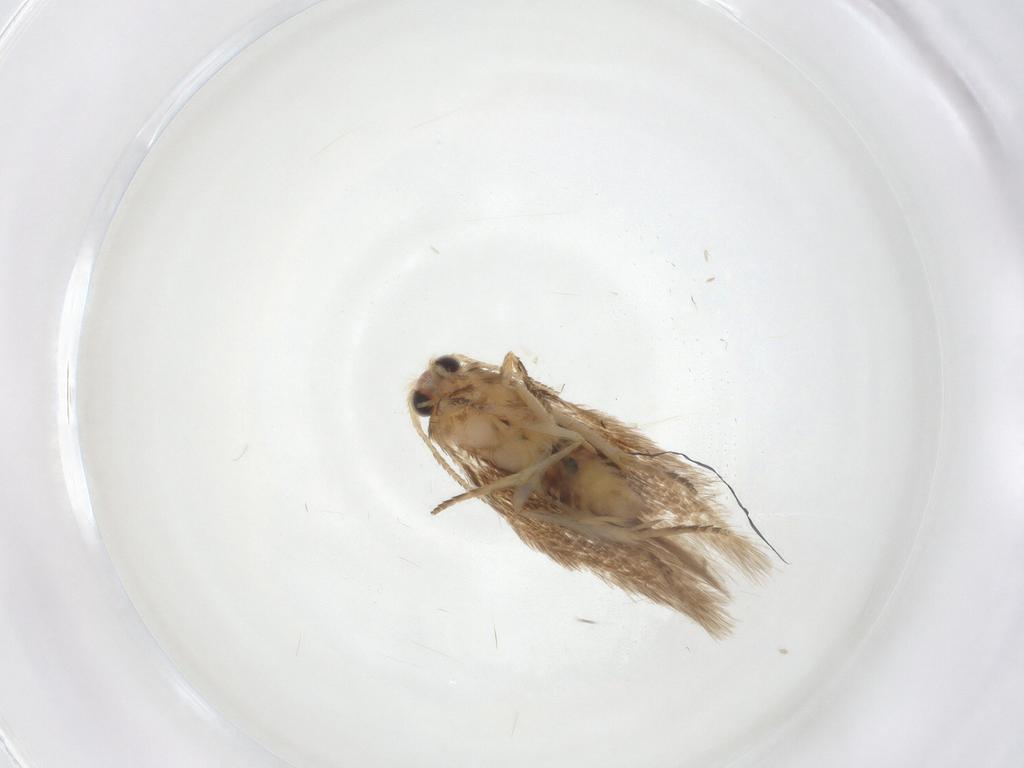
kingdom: Animalia
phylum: Arthropoda
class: Insecta
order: Lepidoptera
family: Nepticulidae
